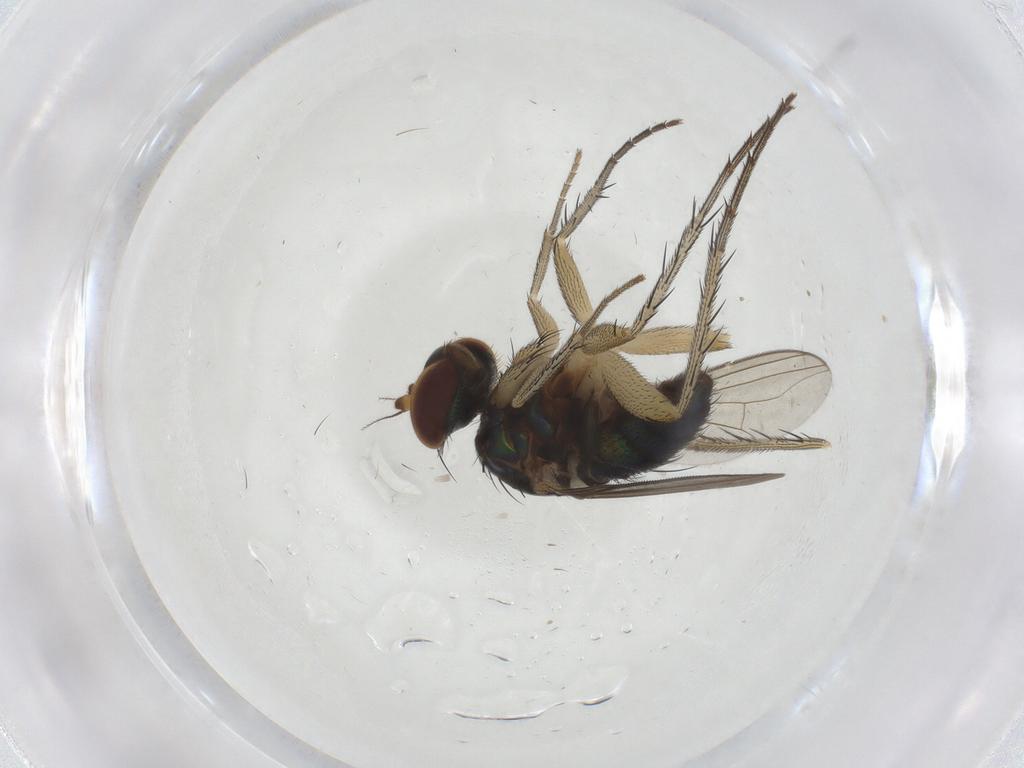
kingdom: Animalia
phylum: Arthropoda
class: Insecta
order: Diptera
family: Dolichopodidae
